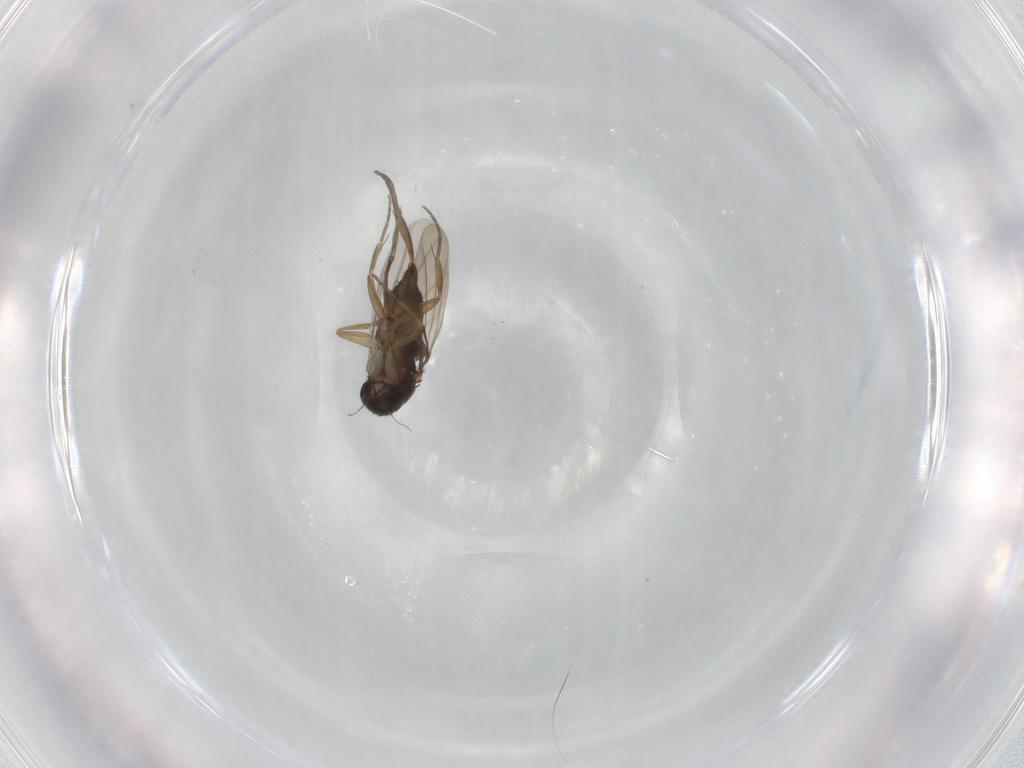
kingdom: Animalia
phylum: Arthropoda
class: Insecta
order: Diptera
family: Phoridae
